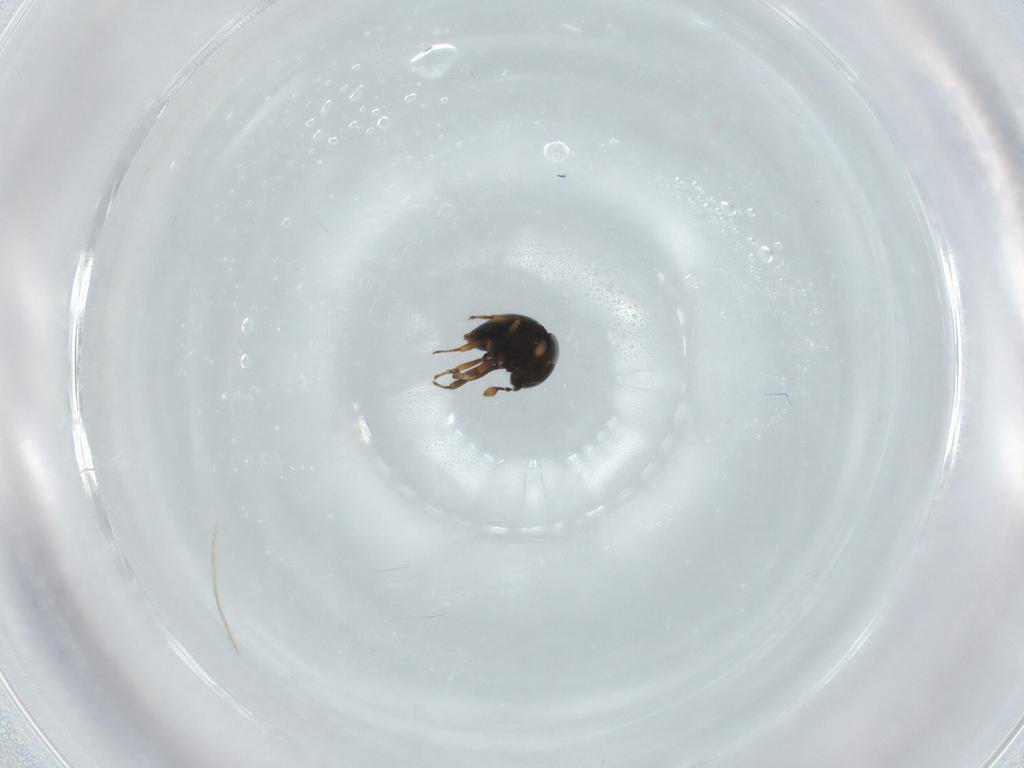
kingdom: Animalia
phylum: Arthropoda
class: Insecta
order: Hymenoptera
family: Scelionidae
